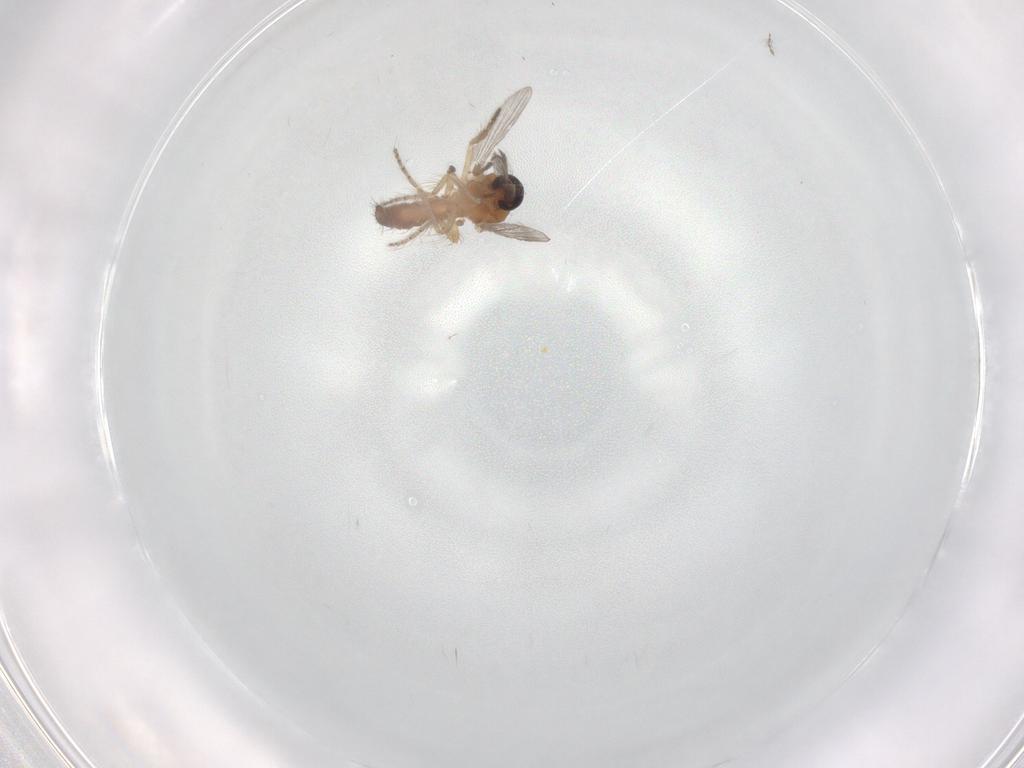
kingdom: Animalia
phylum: Arthropoda
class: Insecta
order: Diptera
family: Ceratopogonidae
